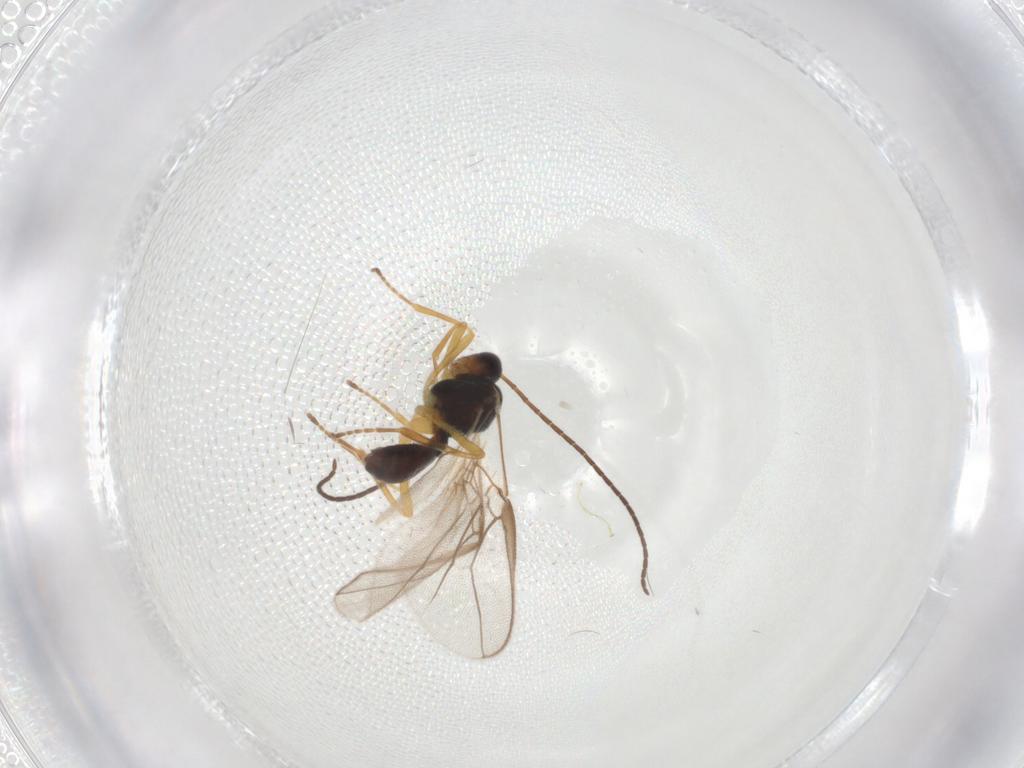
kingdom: Animalia
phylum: Arthropoda
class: Insecta
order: Hymenoptera
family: Braconidae
